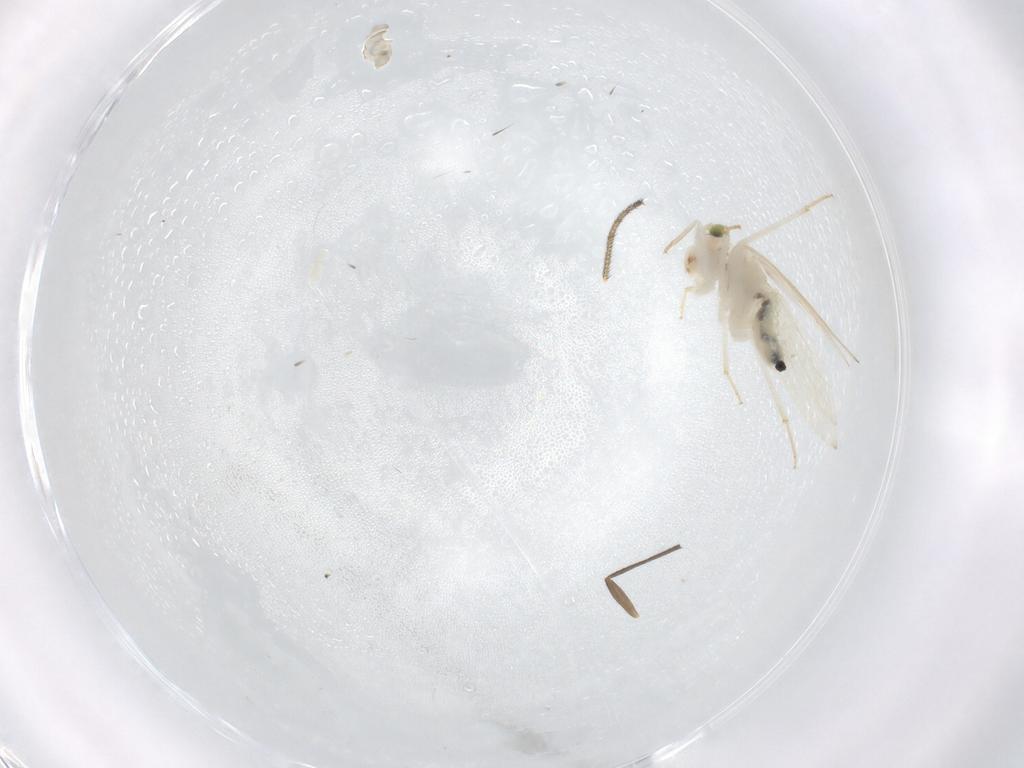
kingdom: Animalia
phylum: Arthropoda
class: Insecta
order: Psocodea
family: Lepidopsocidae
